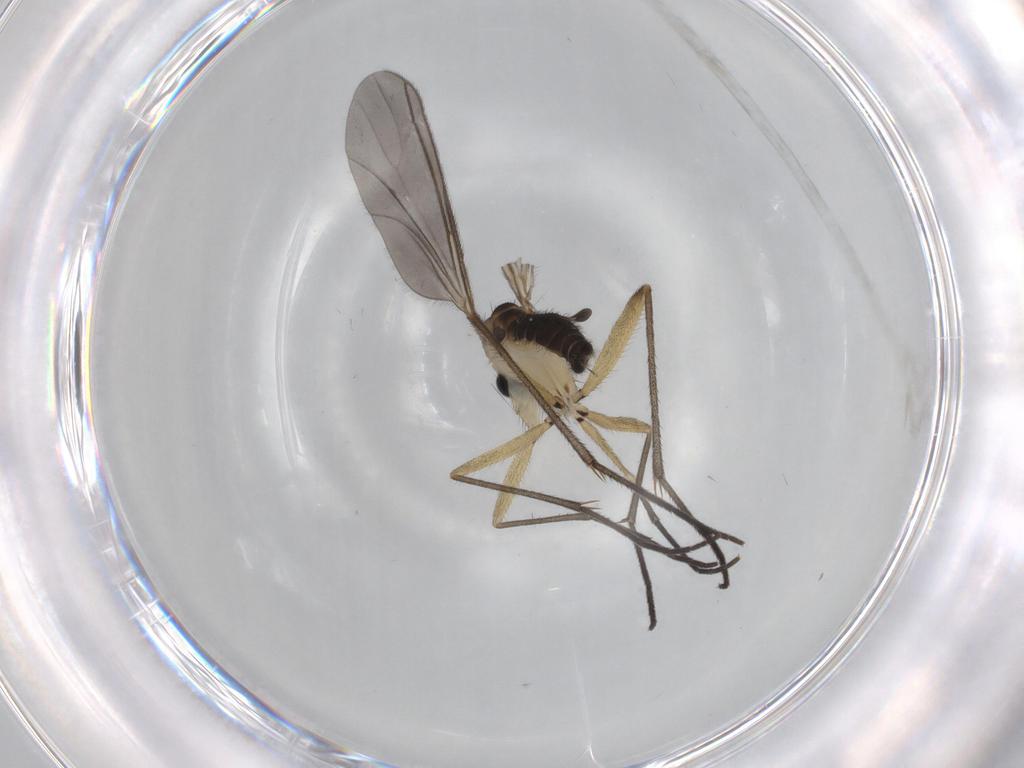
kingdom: Animalia
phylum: Arthropoda
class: Insecta
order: Diptera
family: Sciaridae
